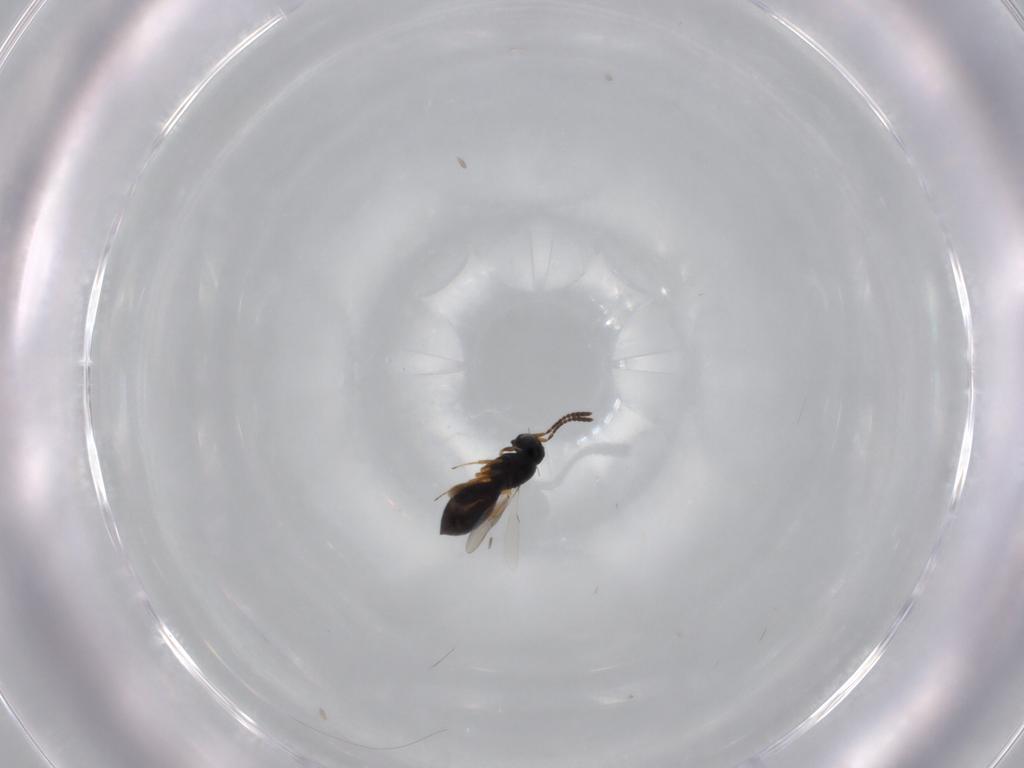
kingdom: Animalia
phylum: Arthropoda
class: Insecta
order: Hymenoptera
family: Scelionidae
